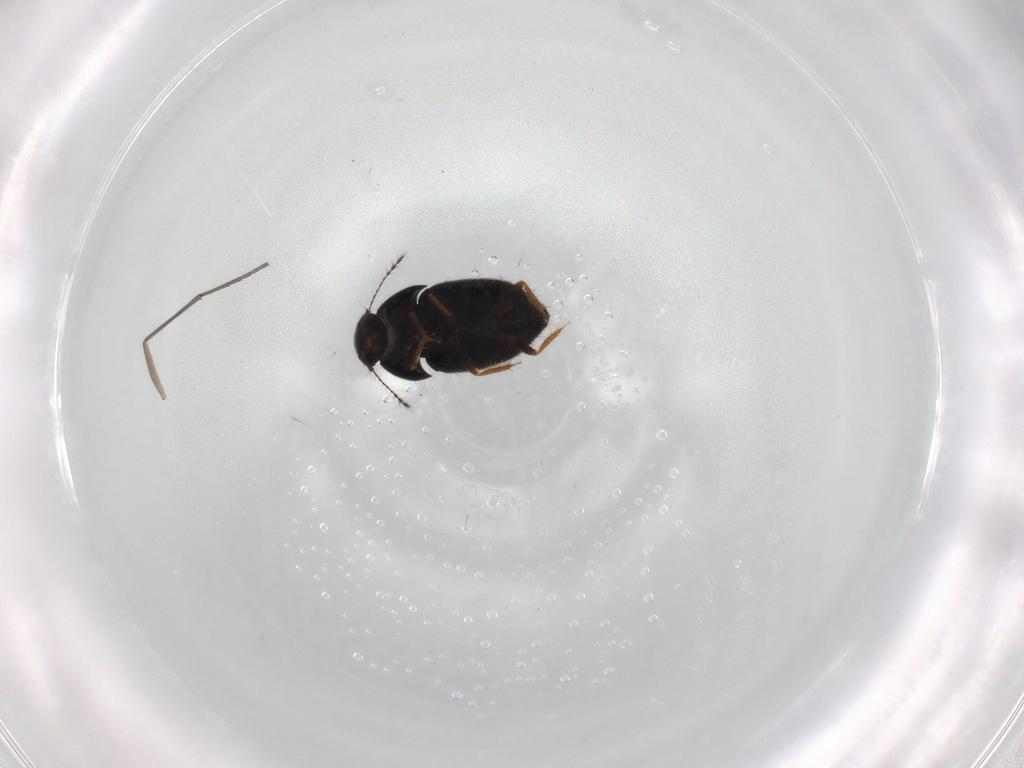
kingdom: Animalia
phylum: Arthropoda
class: Insecta
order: Coleoptera
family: Ptiliidae
